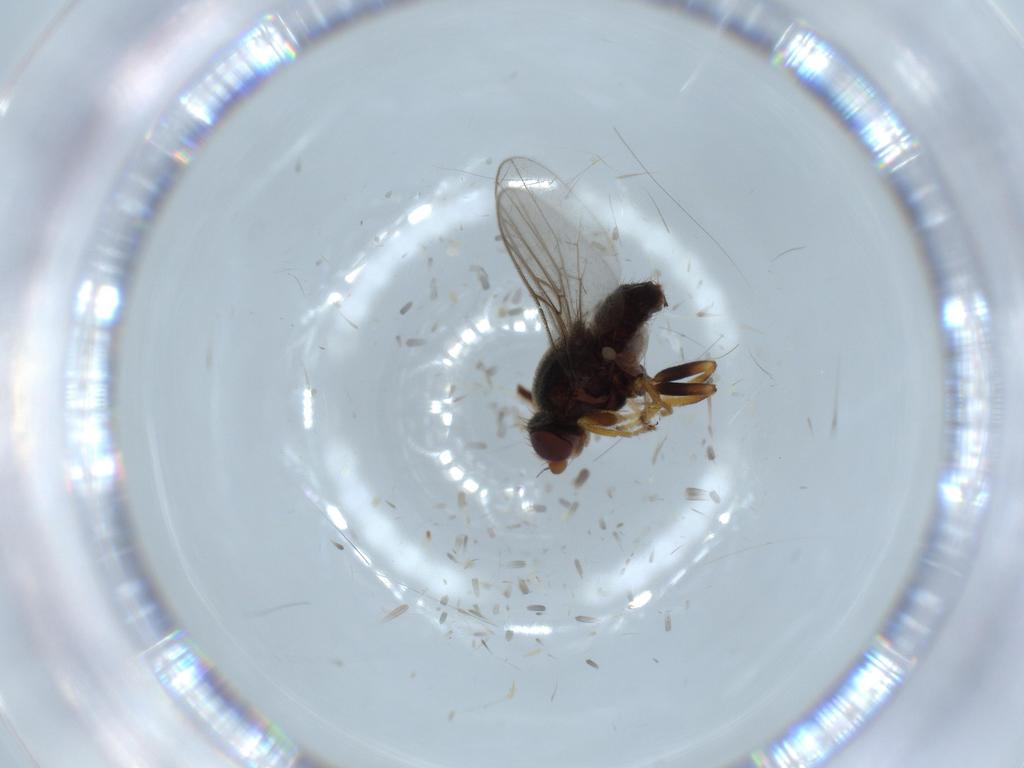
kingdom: Animalia
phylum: Arthropoda
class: Insecta
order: Diptera
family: Chloropidae
